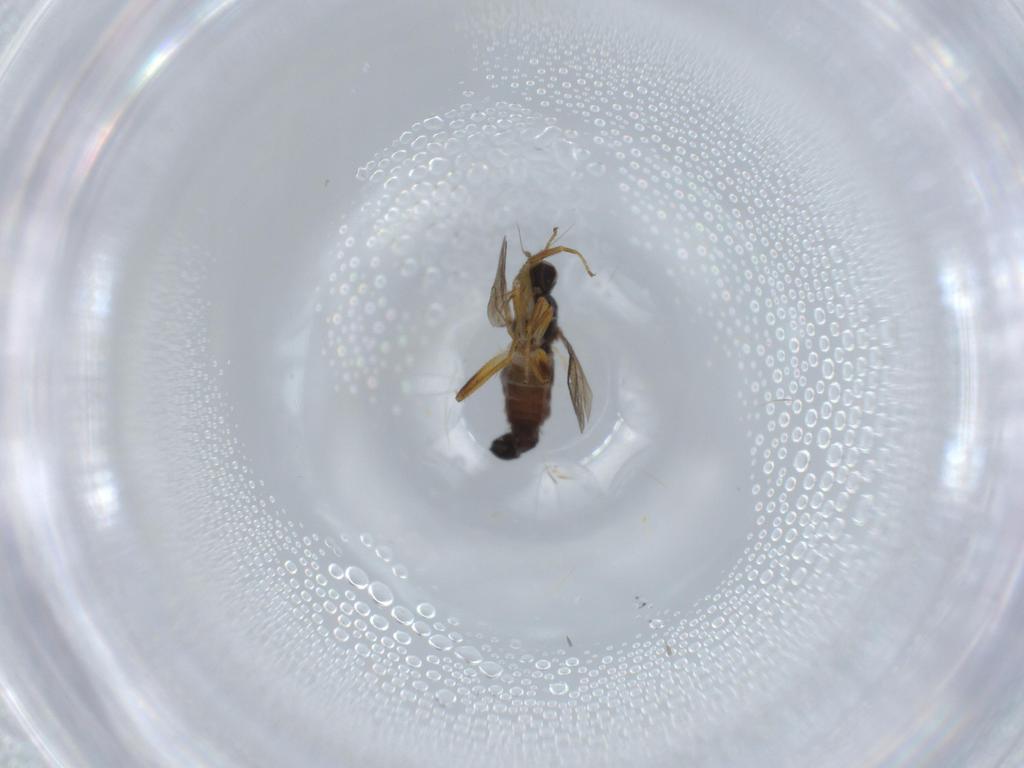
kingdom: Animalia
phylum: Arthropoda
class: Insecta
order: Diptera
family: Hybotidae
